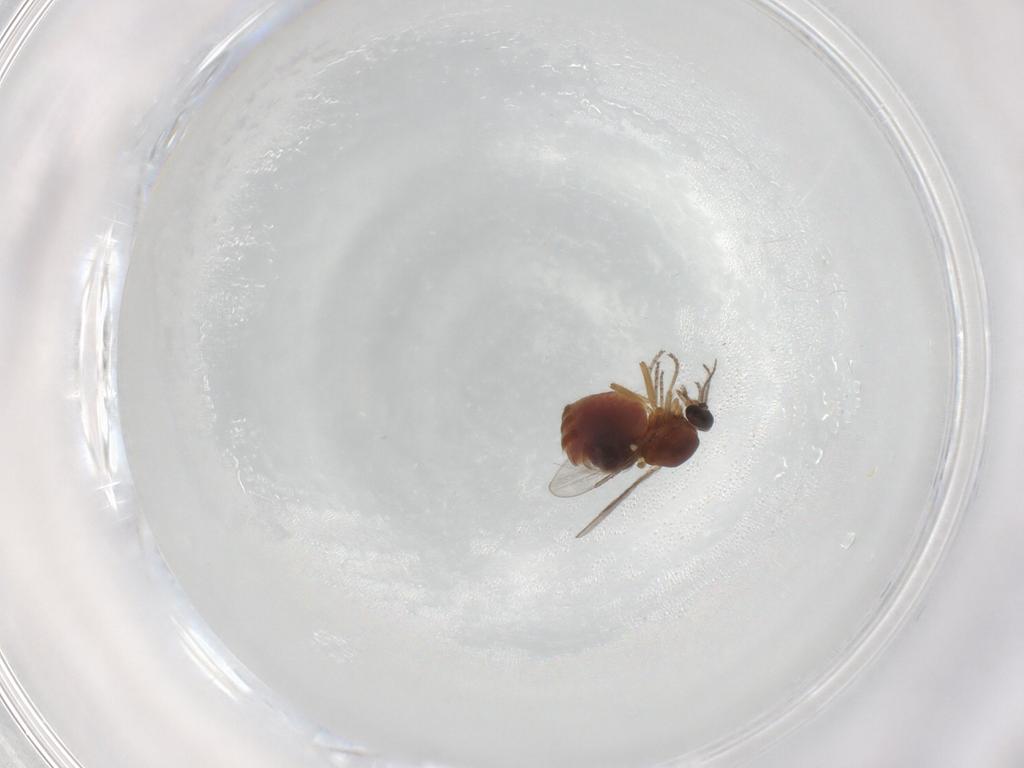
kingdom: Animalia
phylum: Arthropoda
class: Insecta
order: Diptera
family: Ceratopogonidae
